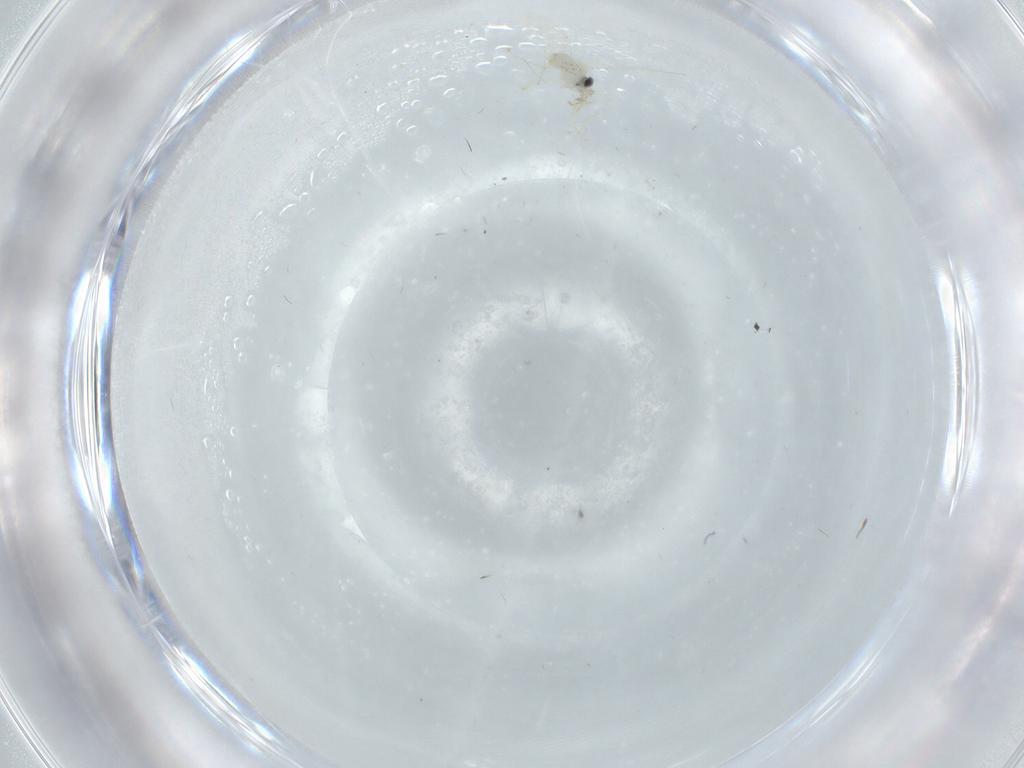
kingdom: Animalia
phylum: Arthropoda
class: Insecta
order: Diptera
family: Cecidomyiidae
